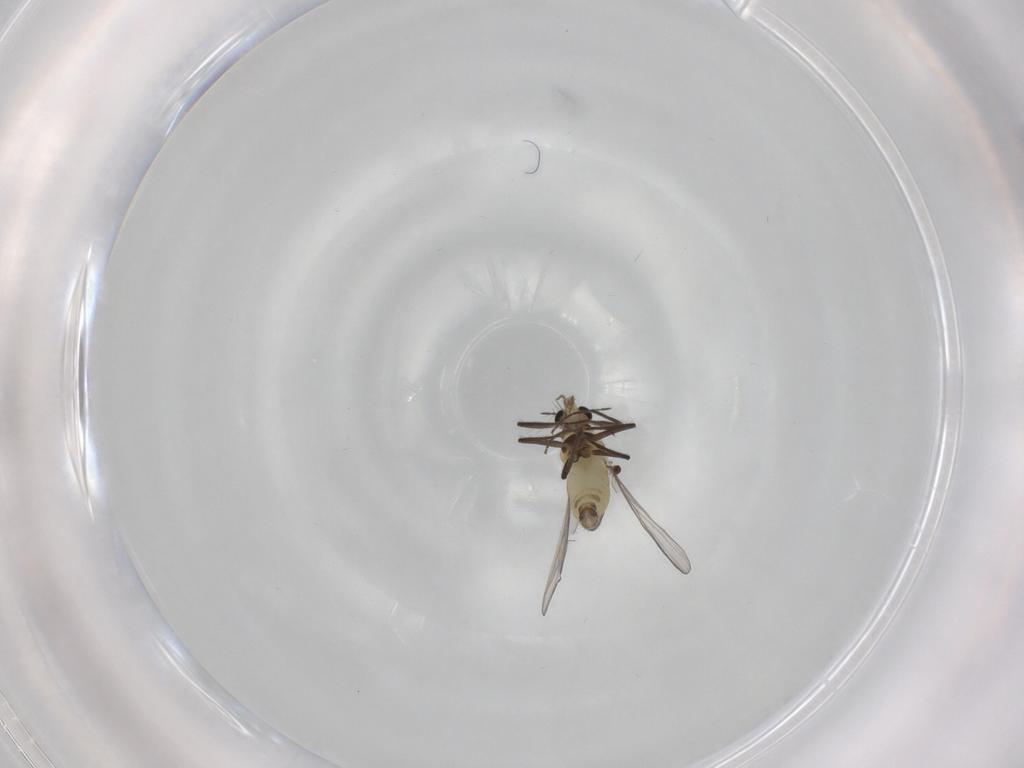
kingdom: Animalia
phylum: Arthropoda
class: Insecta
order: Diptera
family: Chironomidae
